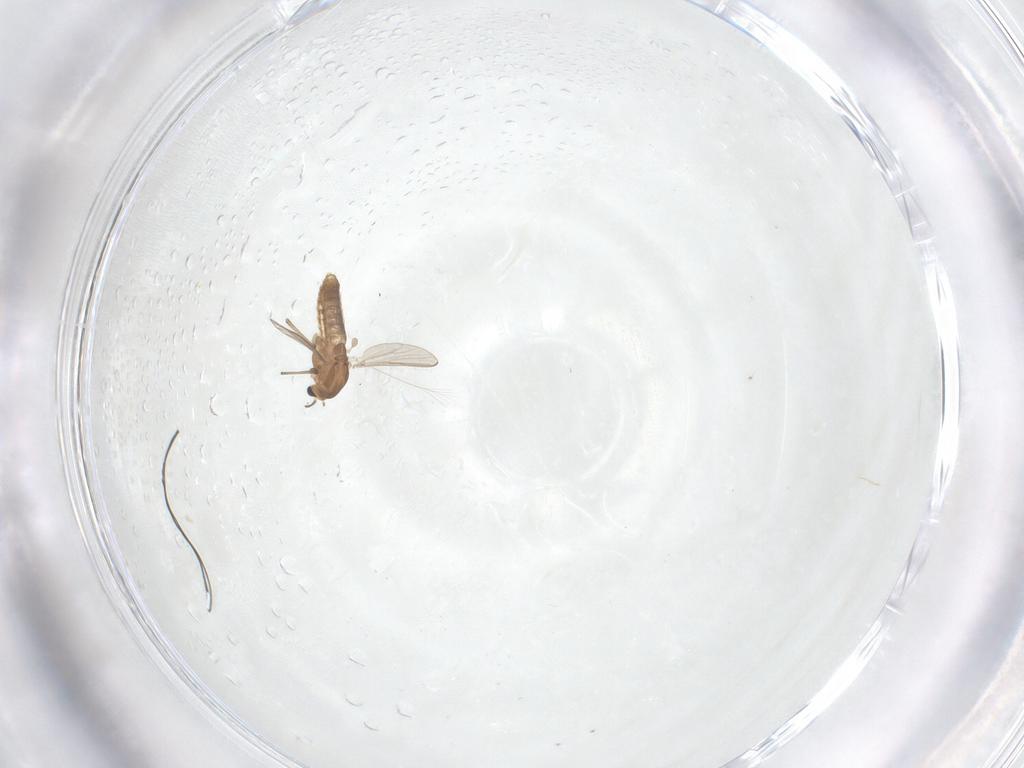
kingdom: Animalia
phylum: Arthropoda
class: Insecta
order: Diptera
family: Chironomidae
